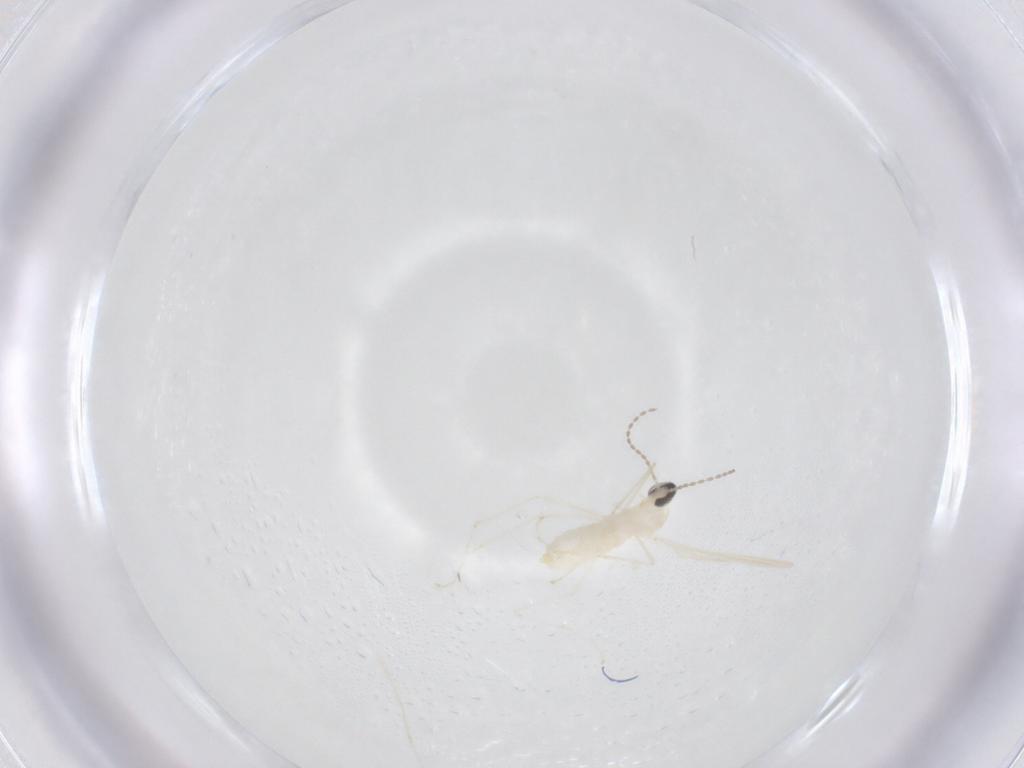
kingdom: Animalia
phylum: Arthropoda
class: Insecta
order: Diptera
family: Cecidomyiidae
